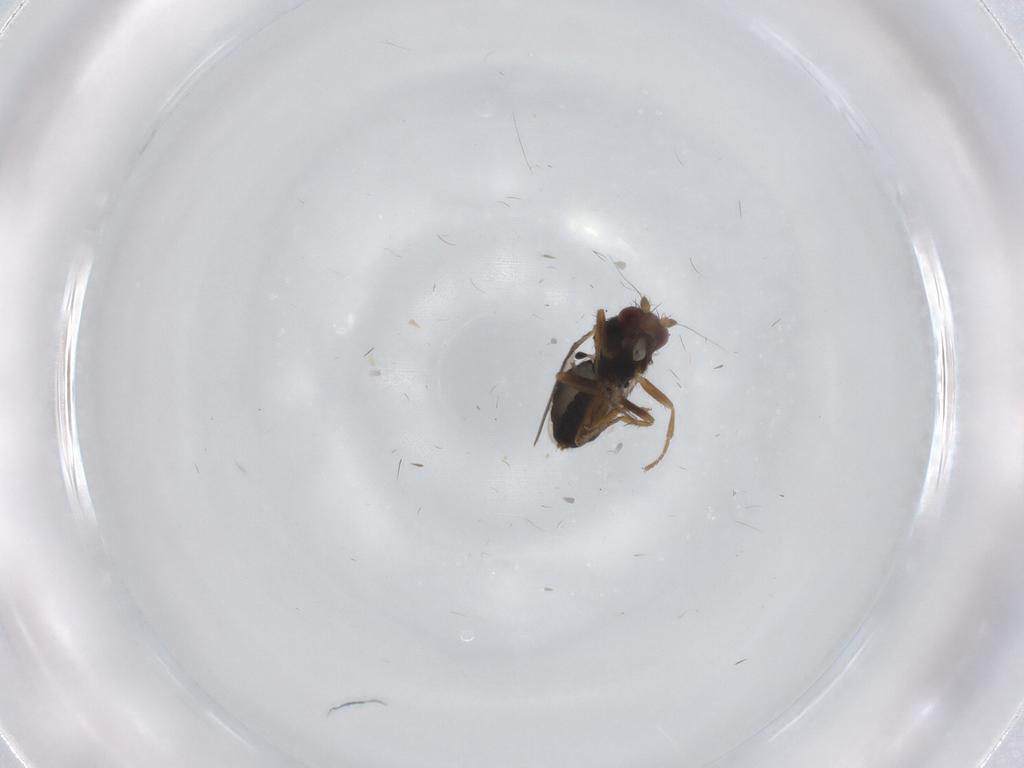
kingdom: Animalia
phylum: Arthropoda
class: Insecta
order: Diptera
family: Sphaeroceridae
